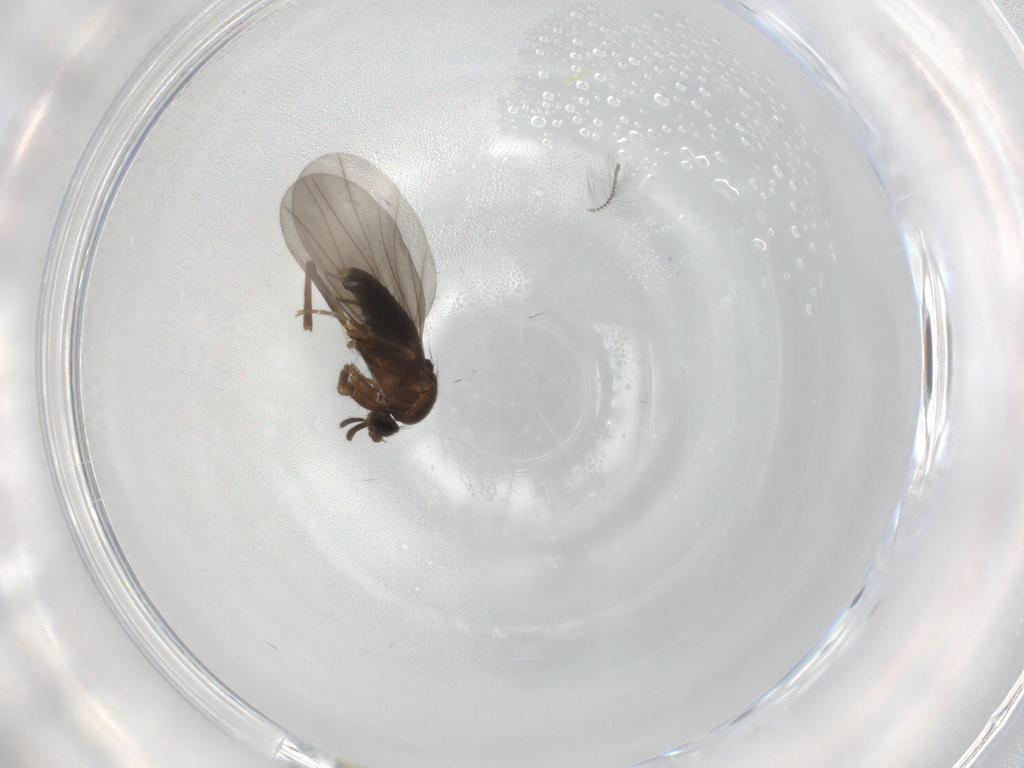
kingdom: Animalia
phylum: Arthropoda
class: Insecta
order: Diptera
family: Phoridae
